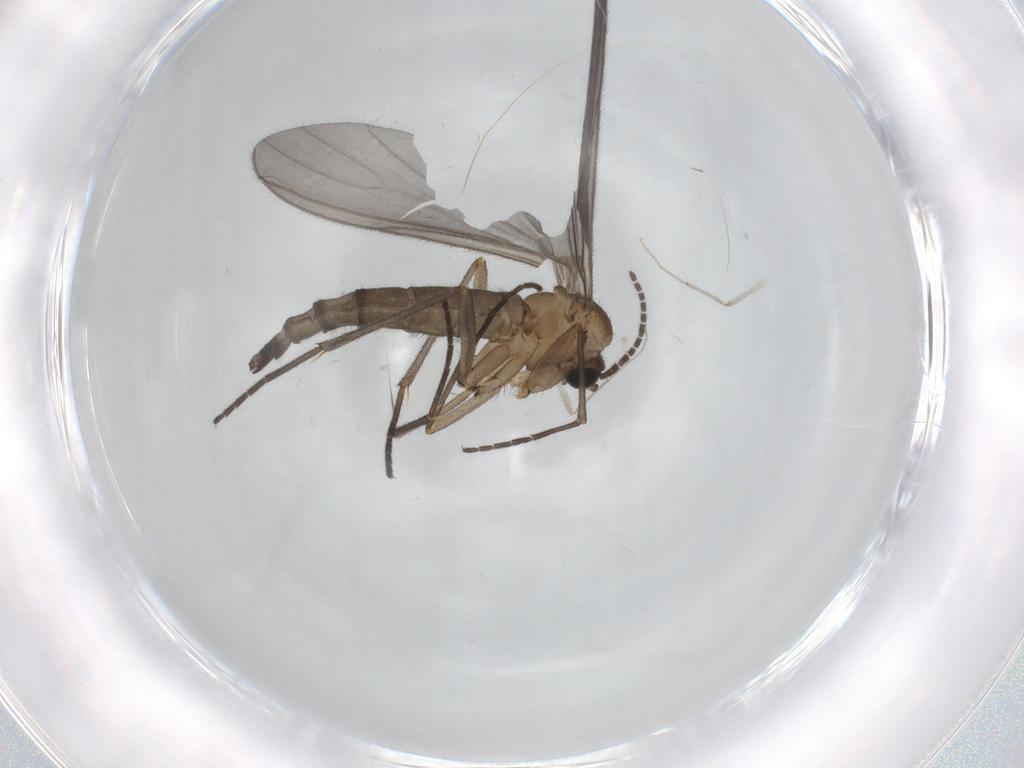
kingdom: Animalia
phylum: Arthropoda
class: Insecta
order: Diptera
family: Sciaridae
